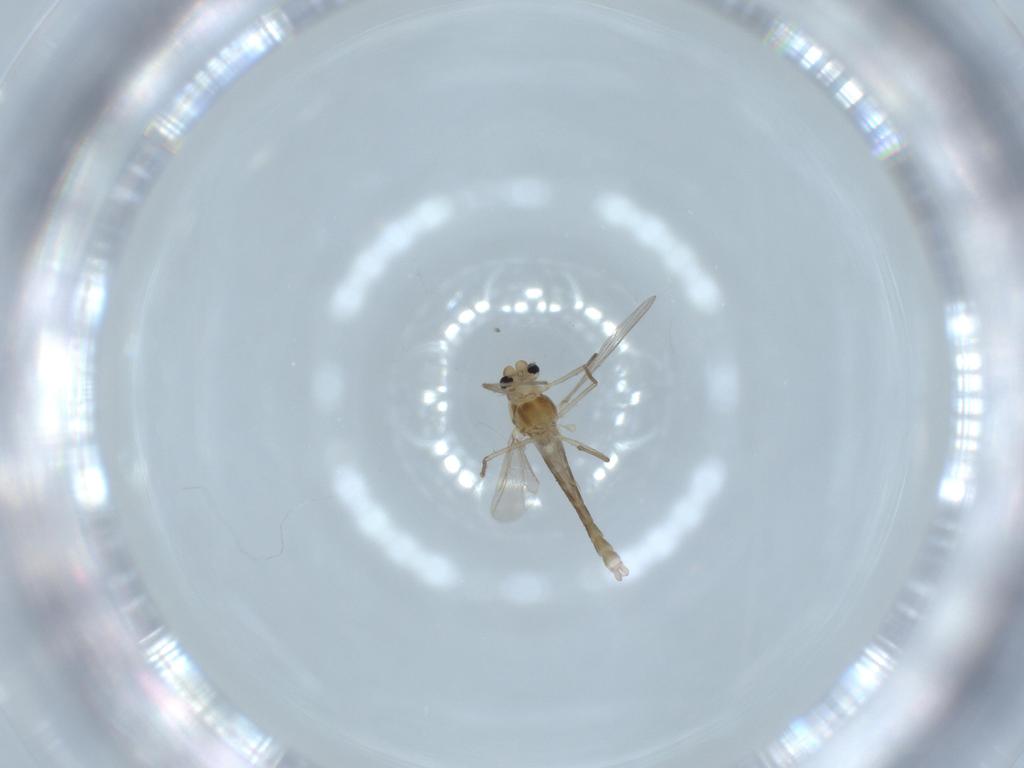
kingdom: Animalia
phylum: Arthropoda
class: Insecta
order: Diptera
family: Chironomidae
